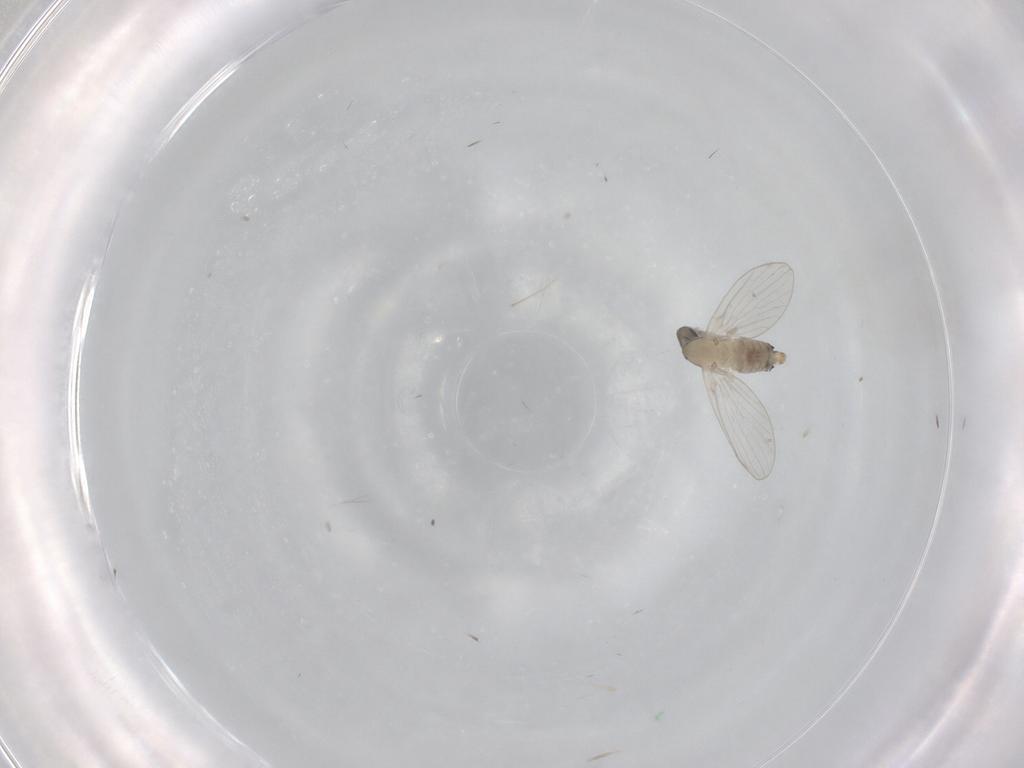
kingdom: Animalia
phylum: Arthropoda
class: Insecta
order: Diptera
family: Psychodidae
